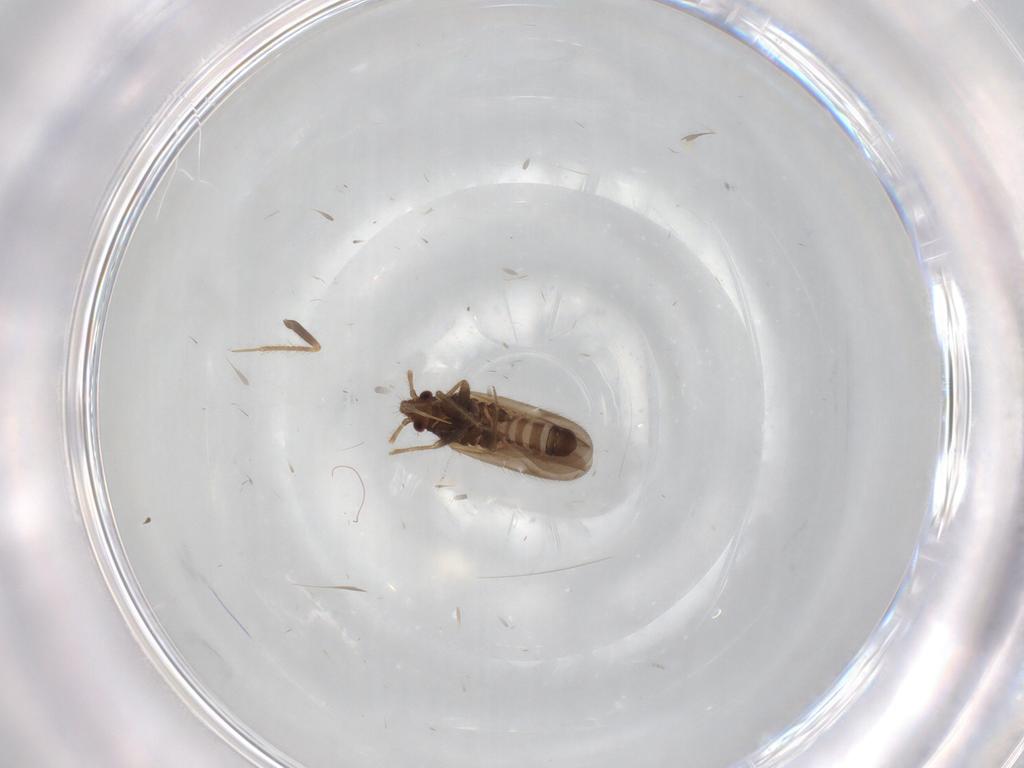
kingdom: Animalia
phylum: Arthropoda
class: Insecta
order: Hemiptera
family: Ceratocombidae
